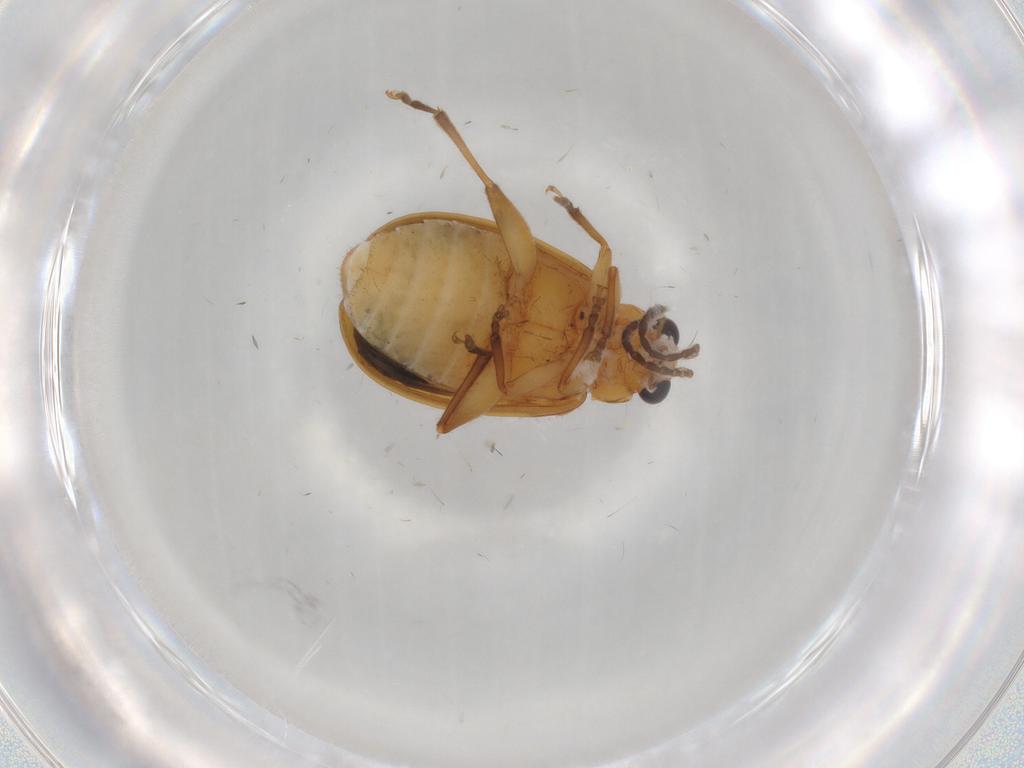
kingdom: Animalia
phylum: Arthropoda
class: Insecta
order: Coleoptera
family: Chrysomelidae
